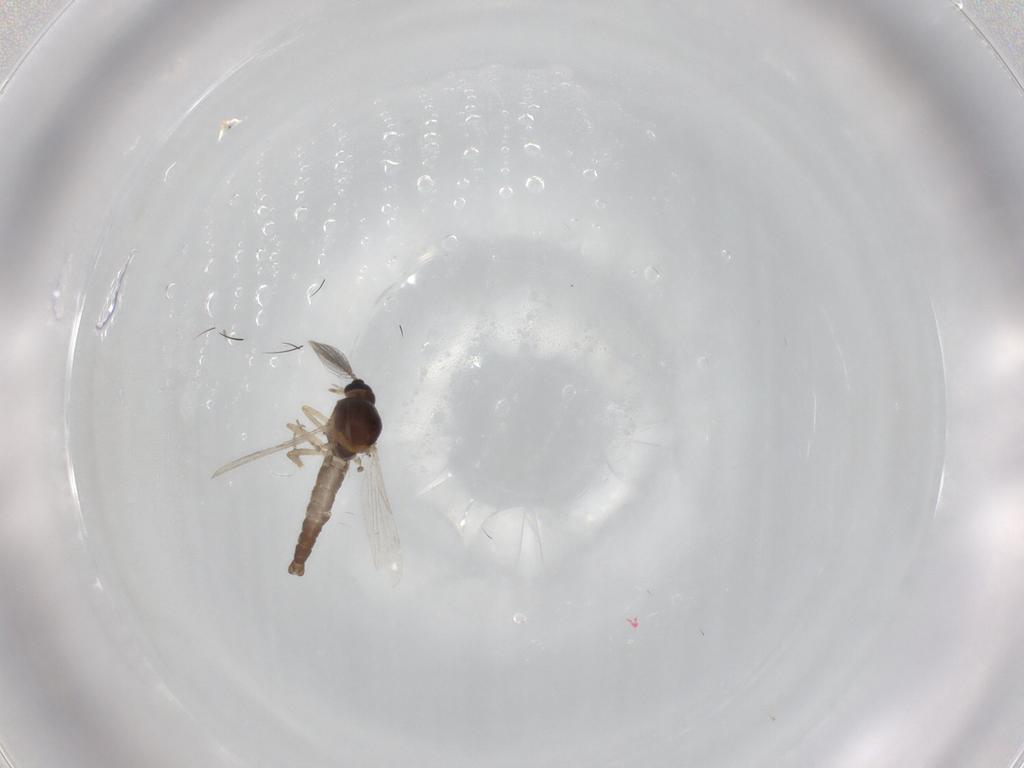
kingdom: Animalia
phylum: Arthropoda
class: Insecta
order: Diptera
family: Ceratopogonidae
